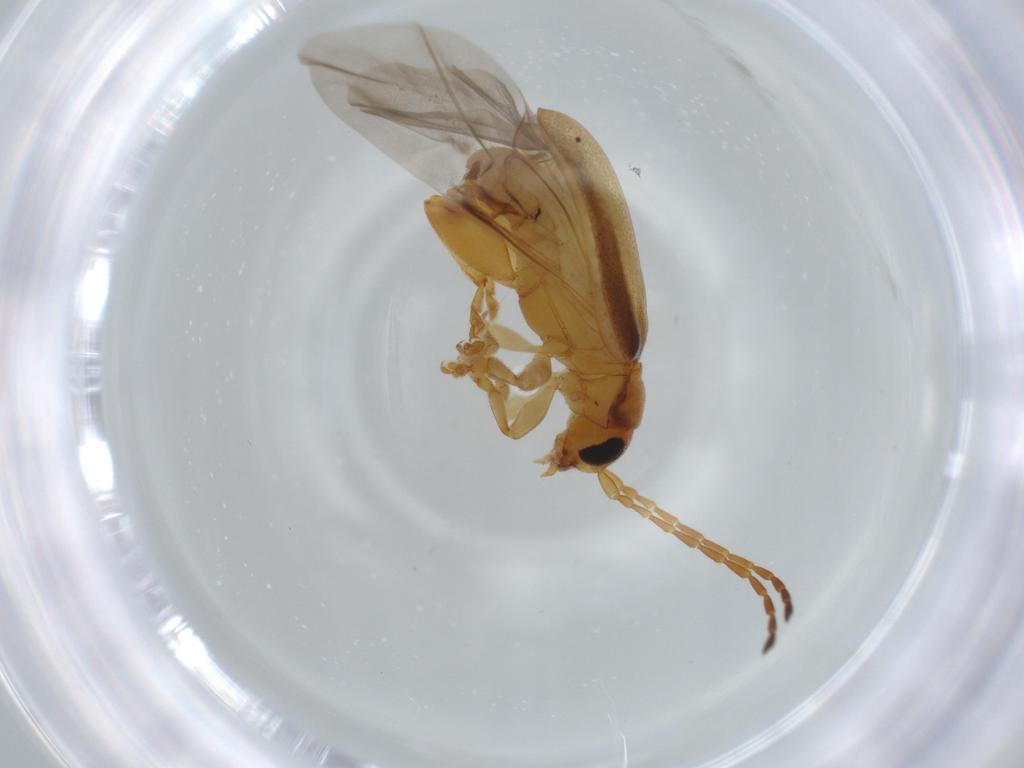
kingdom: Animalia
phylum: Arthropoda
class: Insecta
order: Coleoptera
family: Chrysomelidae
